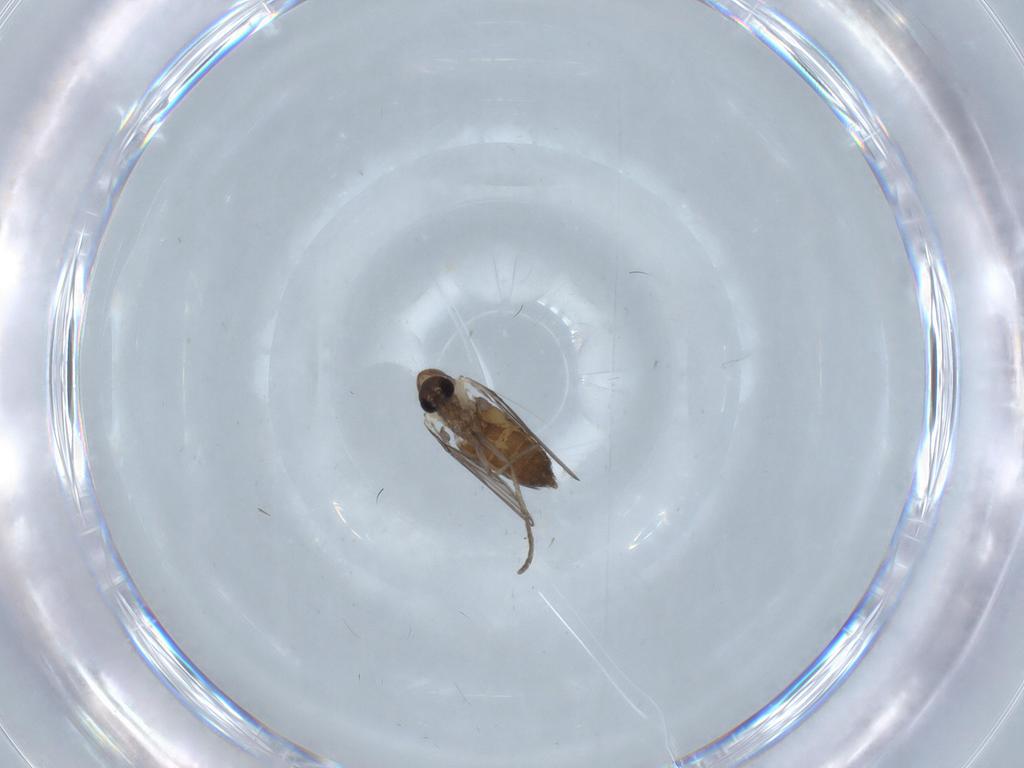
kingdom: Animalia
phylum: Arthropoda
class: Insecta
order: Diptera
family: Psychodidae
